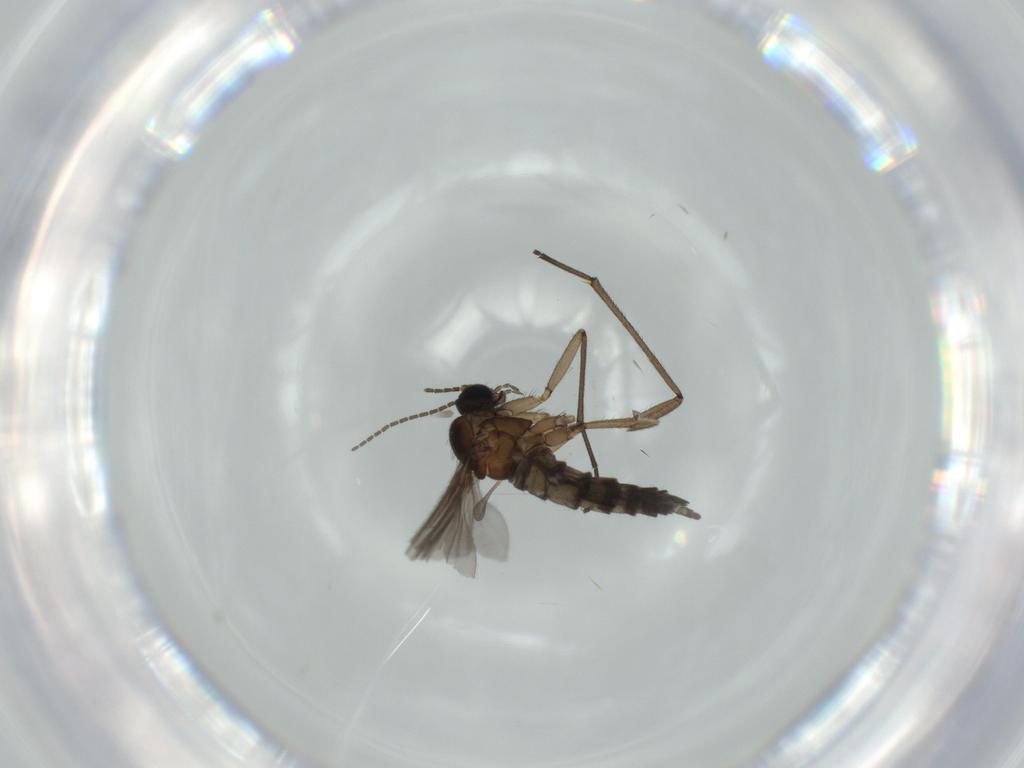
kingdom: Animalia
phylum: Arthropoda
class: Insecta
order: Diptera
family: Sciaridae
